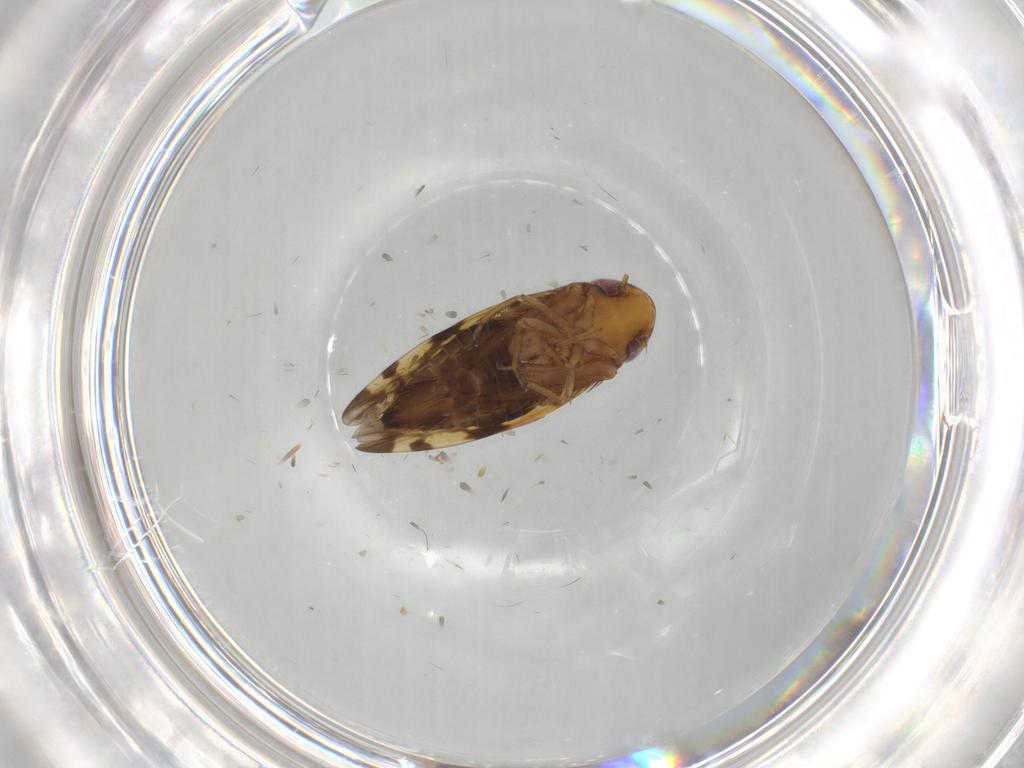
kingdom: Animalia
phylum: Arthropoda
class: Insecta
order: Hemiptera
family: Cicadellidae
